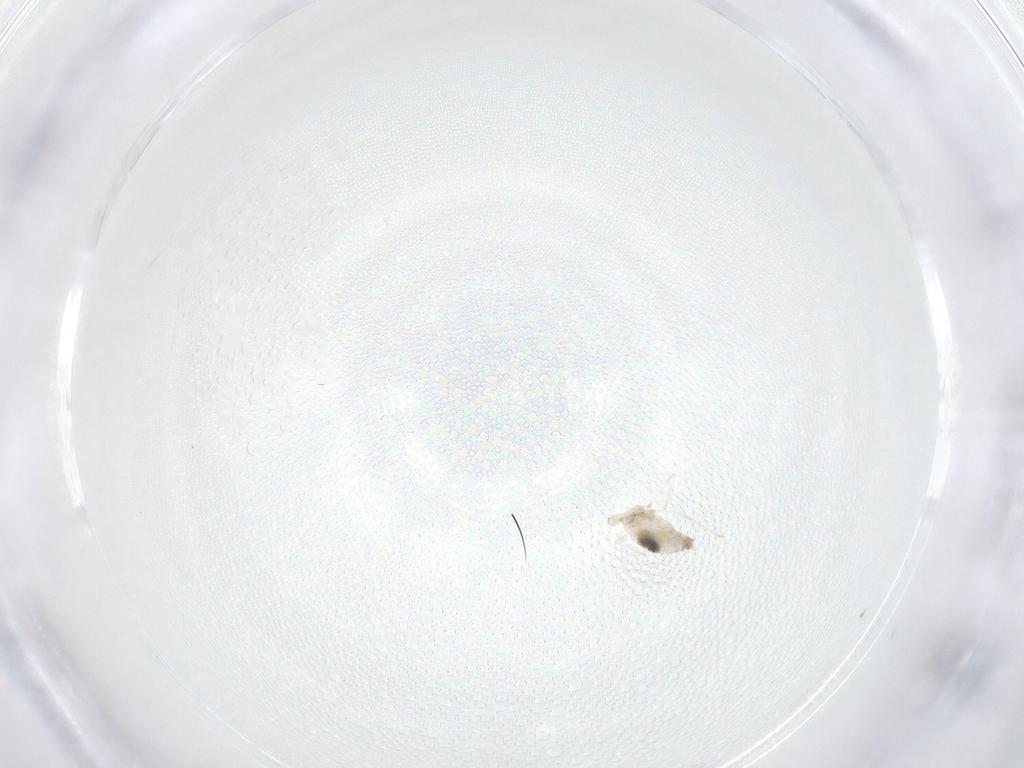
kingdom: Animalia
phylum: Arthropoda
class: Insecta
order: Diptera
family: Cecidomyiidae
